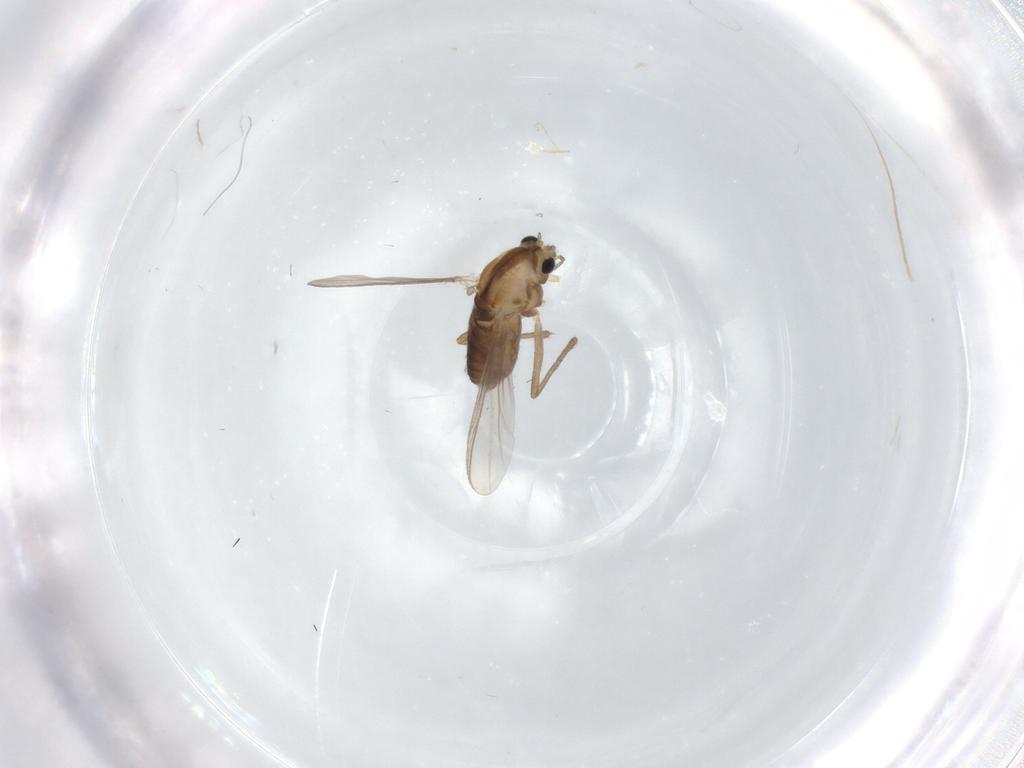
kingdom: Animalia
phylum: Arthropoda
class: Insecta
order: Diptera
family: Chironomidae
